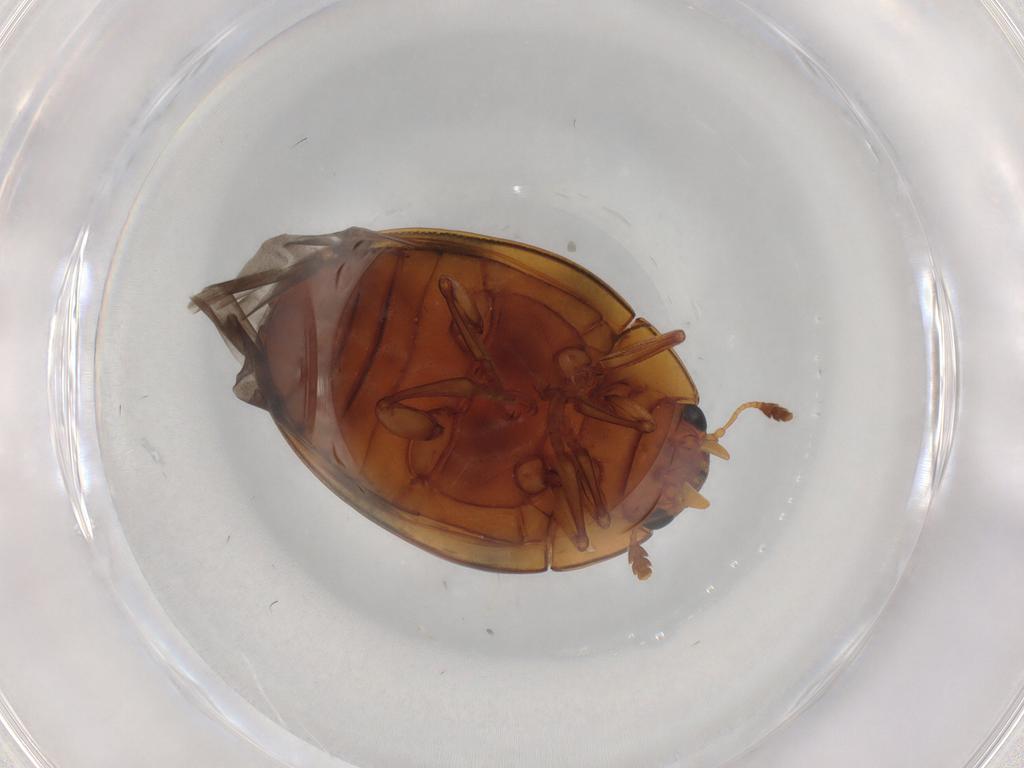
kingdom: Animalia
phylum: Arthropoda
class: Insecta
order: Coleoptera
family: Erotylidae
